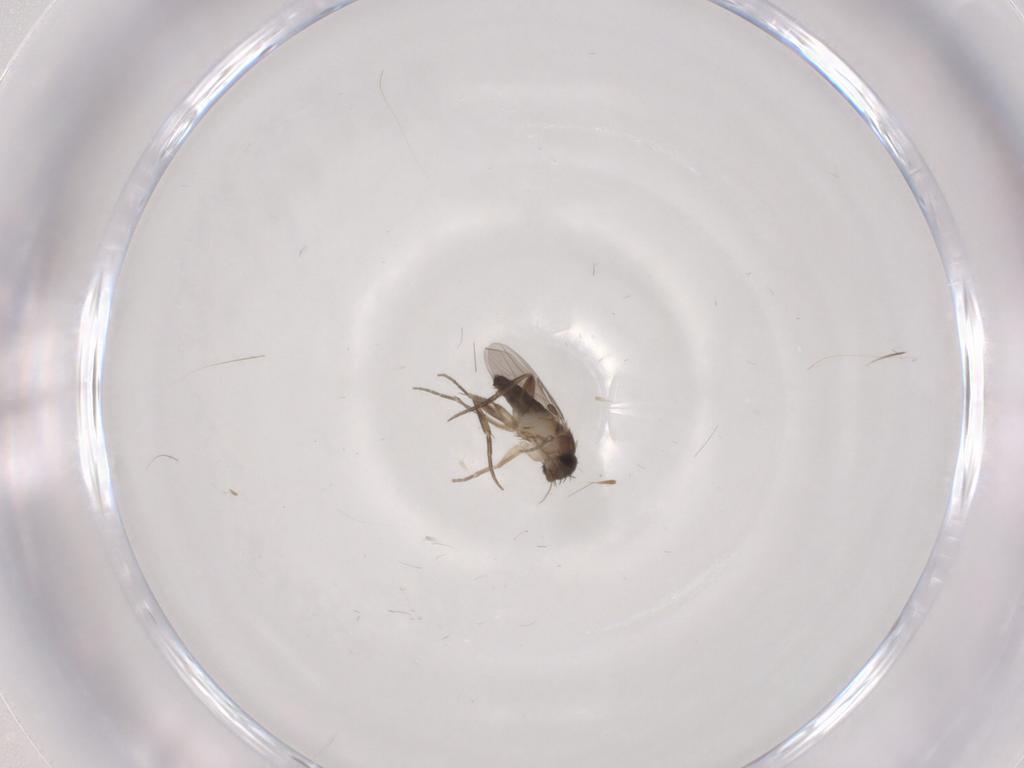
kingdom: Animalia
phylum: Arthropoda
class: Insecta
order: Diptera
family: Phoridae
